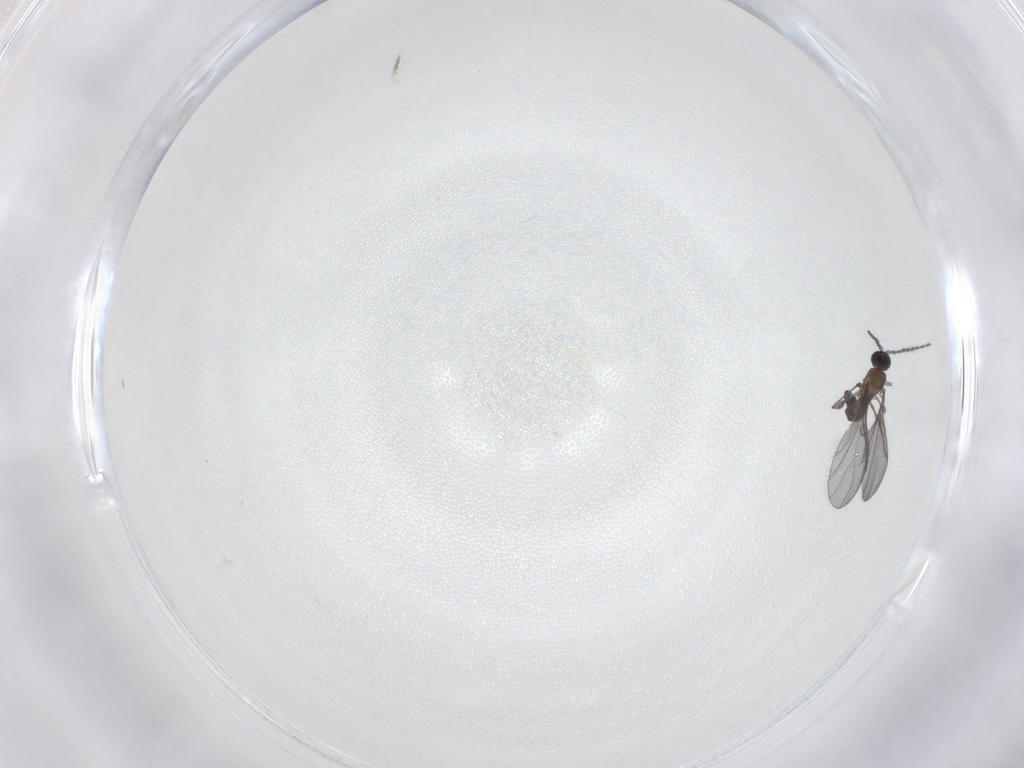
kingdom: Animalia
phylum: Arthropoda
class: Insecta
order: Diptera
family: Sciaridae
